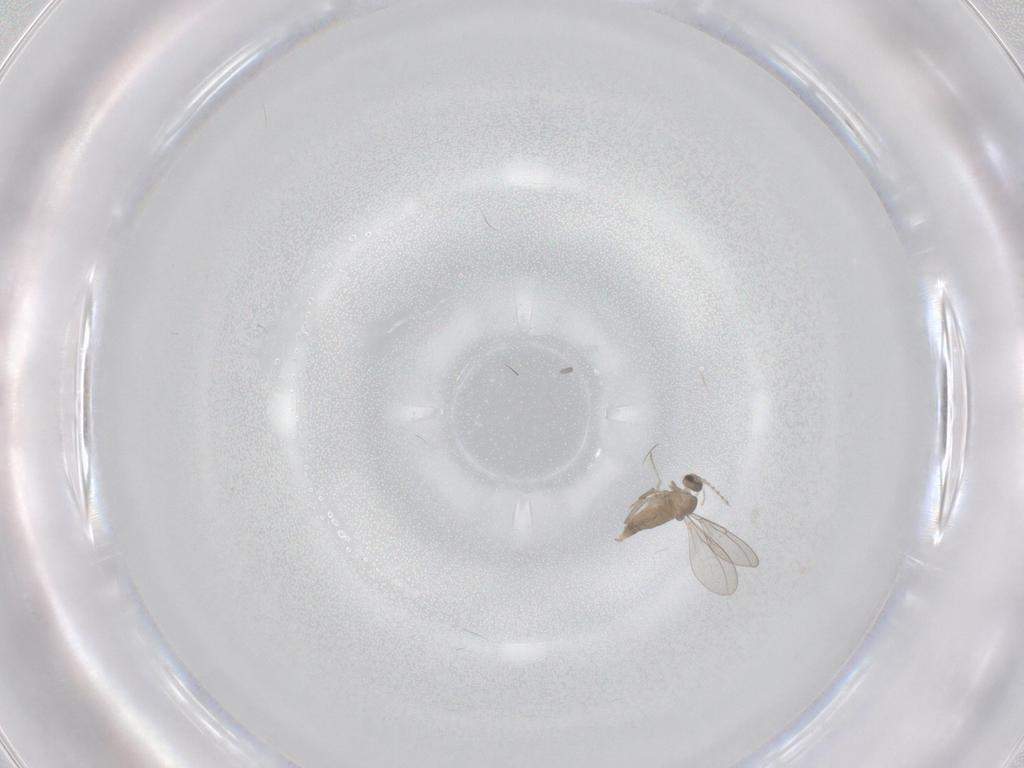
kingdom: Animalia
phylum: Arthropoda
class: Insecta
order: Diptera
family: Cecidomyiidae
